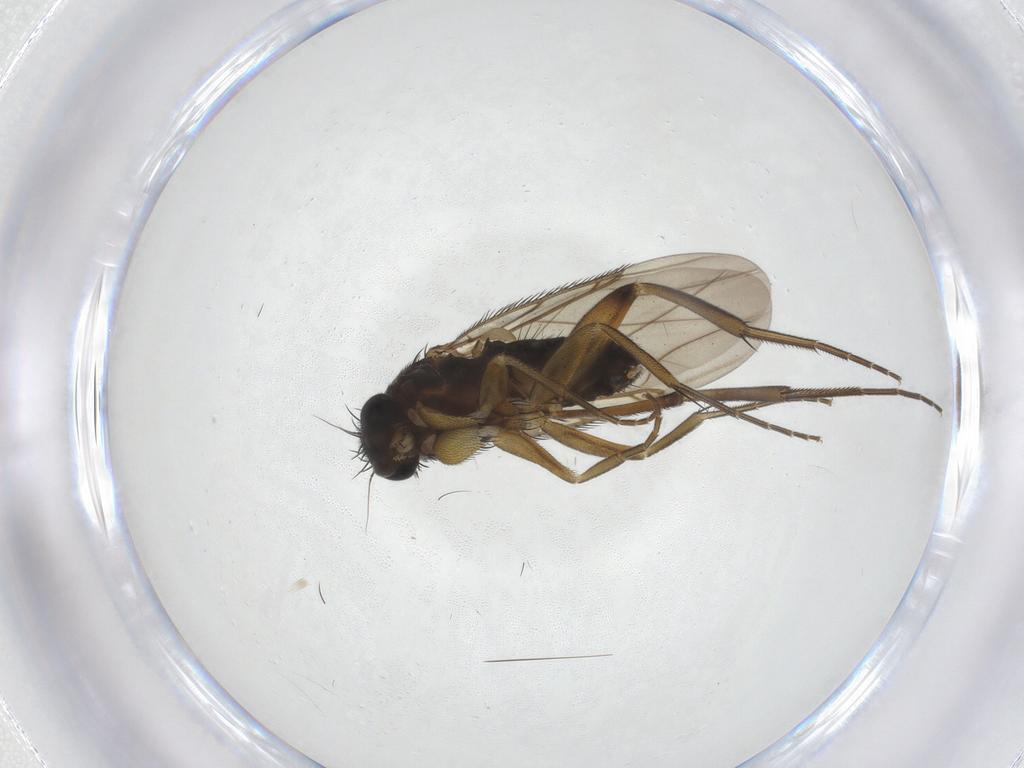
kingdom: Animalia
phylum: Arthropoda
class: Insecta
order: Diptera
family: Phoridae
